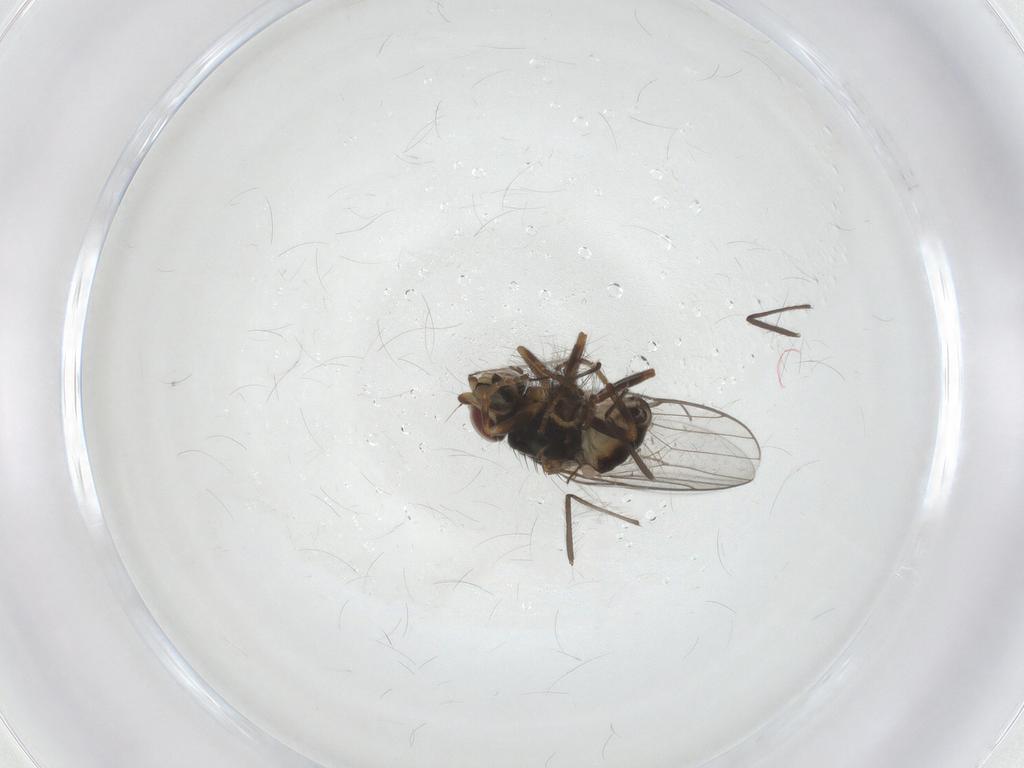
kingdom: Animalia
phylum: Arthropoda
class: Insecta
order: Diptera
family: Chloropidae
